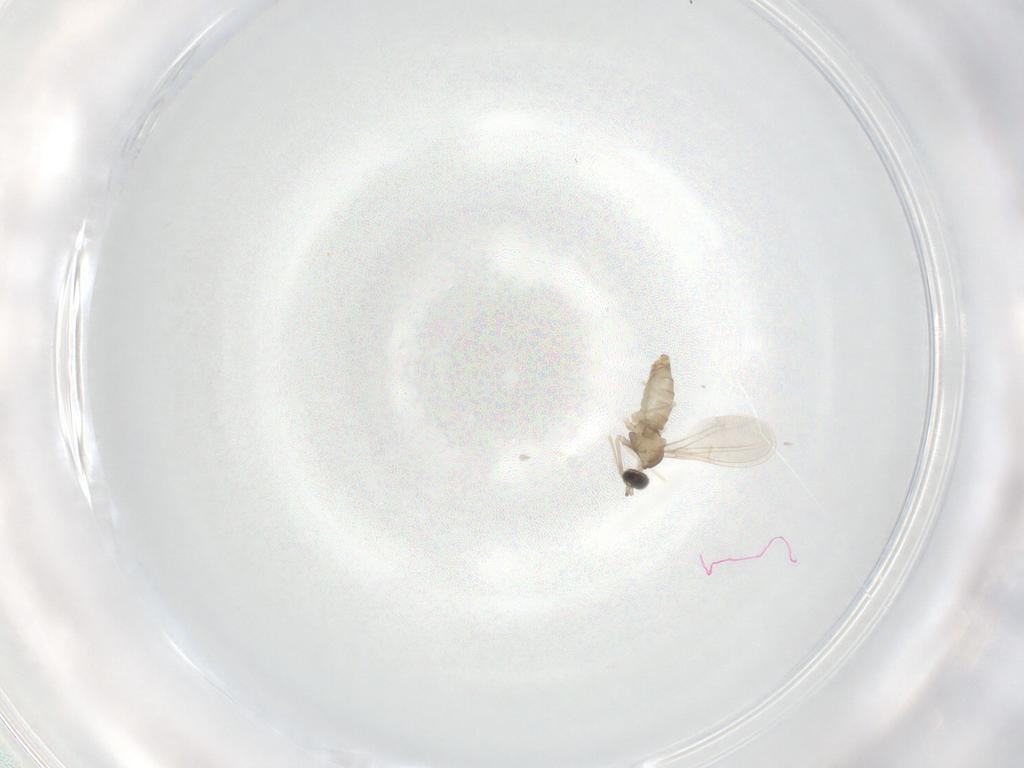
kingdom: Animalia
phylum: Arthropoda
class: Insecta
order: Diptera
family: Cecidomyiidae
